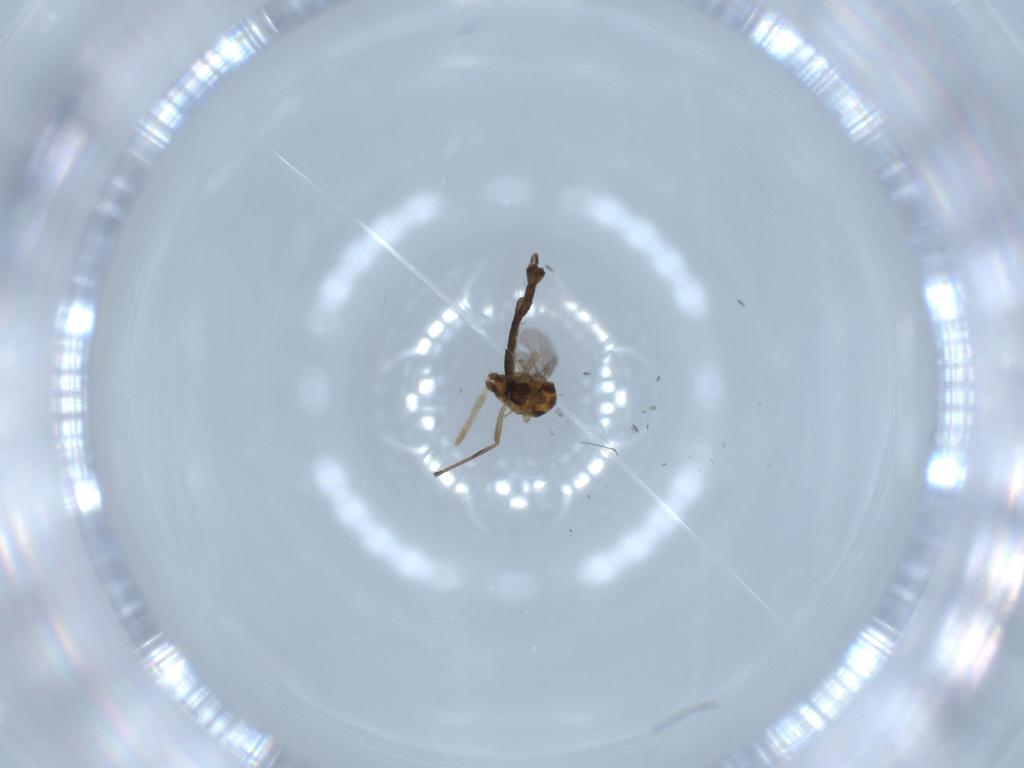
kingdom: Animalia
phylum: Arthropoda
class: Insecta
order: Diptera
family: Chironomidae
